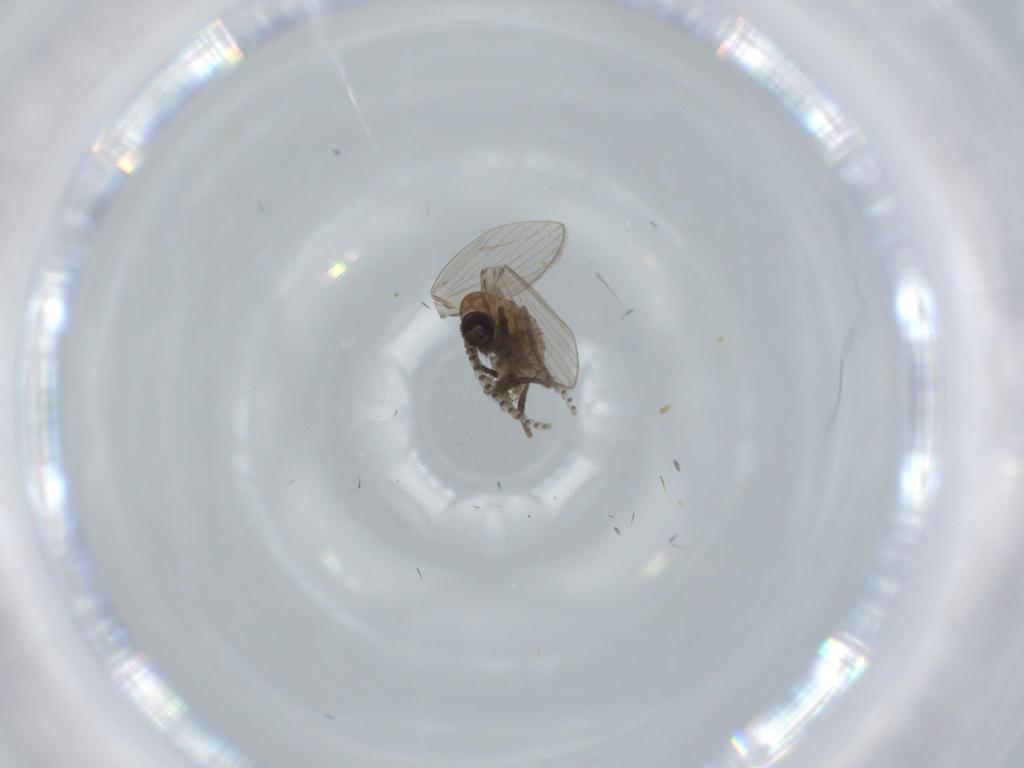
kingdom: Animalia
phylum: Arthropoda
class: Insecta
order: Diptera
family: Psychodidae
